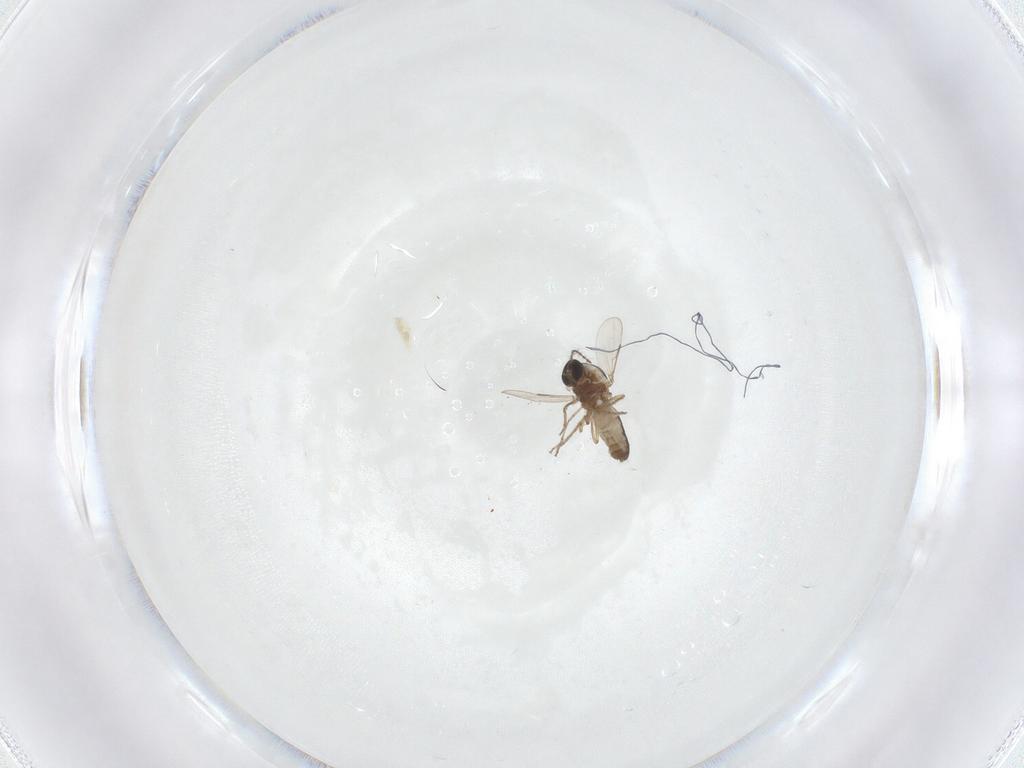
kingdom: Animalia
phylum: Arthropoda
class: Insecta
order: Diptera
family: Ceratopogonidae
